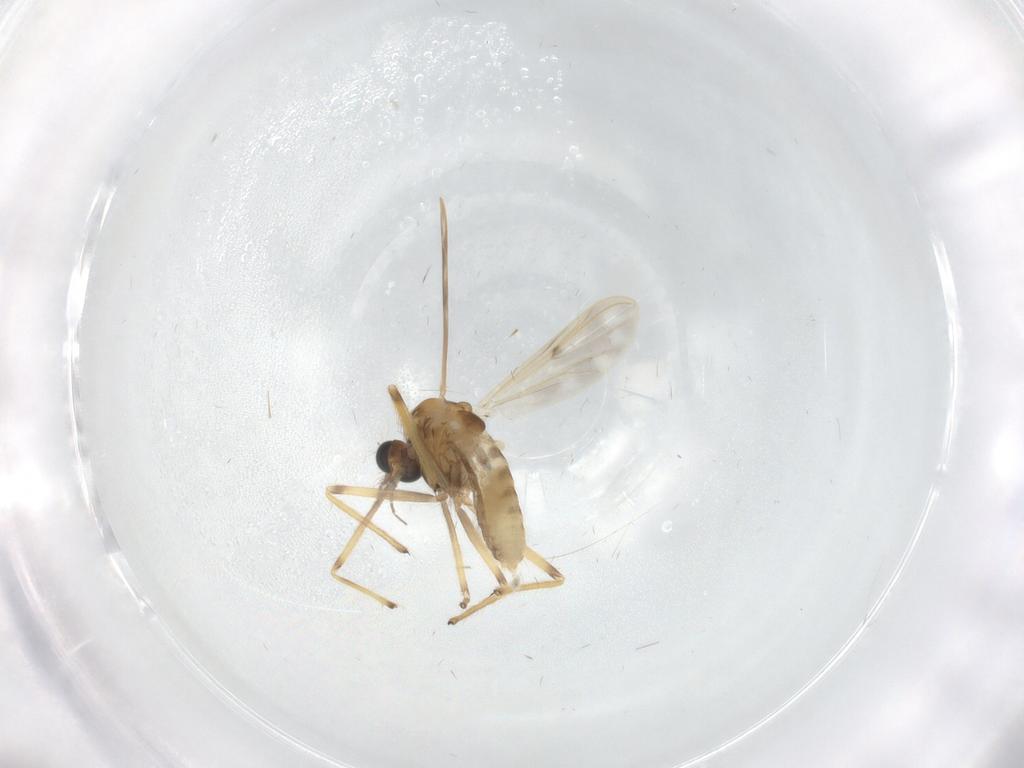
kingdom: Animalia
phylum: Arthropoda
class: Insecta
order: Diptera
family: Chironomidae
